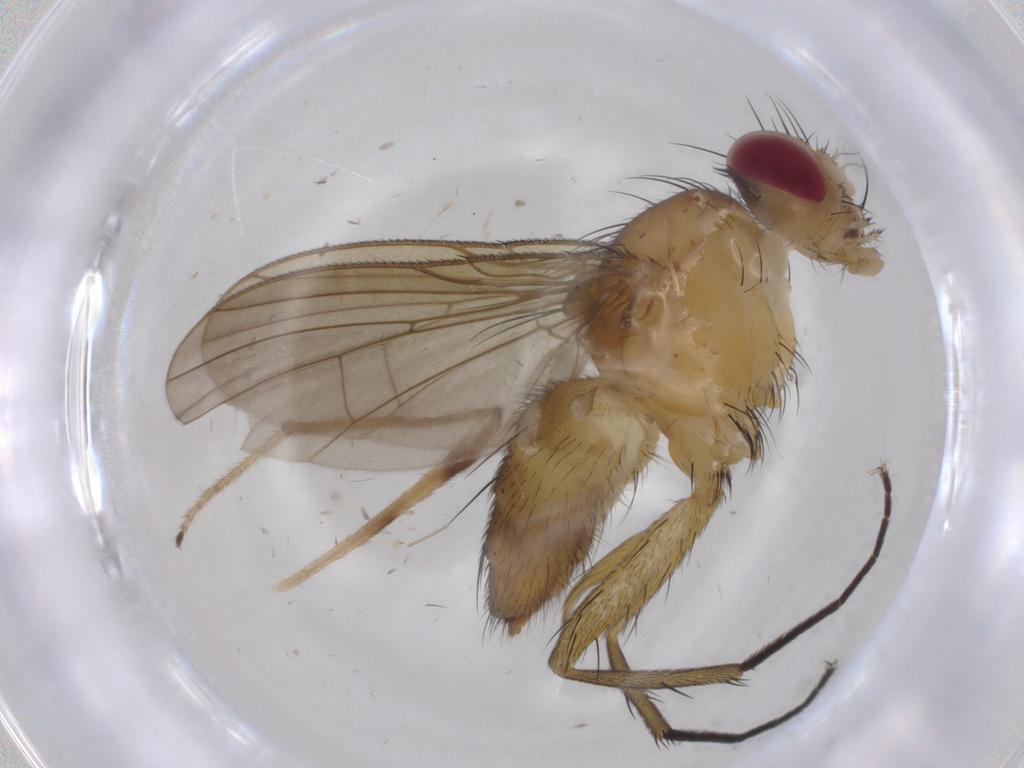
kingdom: Animalia
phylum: Arthropoda
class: Insecta
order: Diptera
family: Calliphoridae
